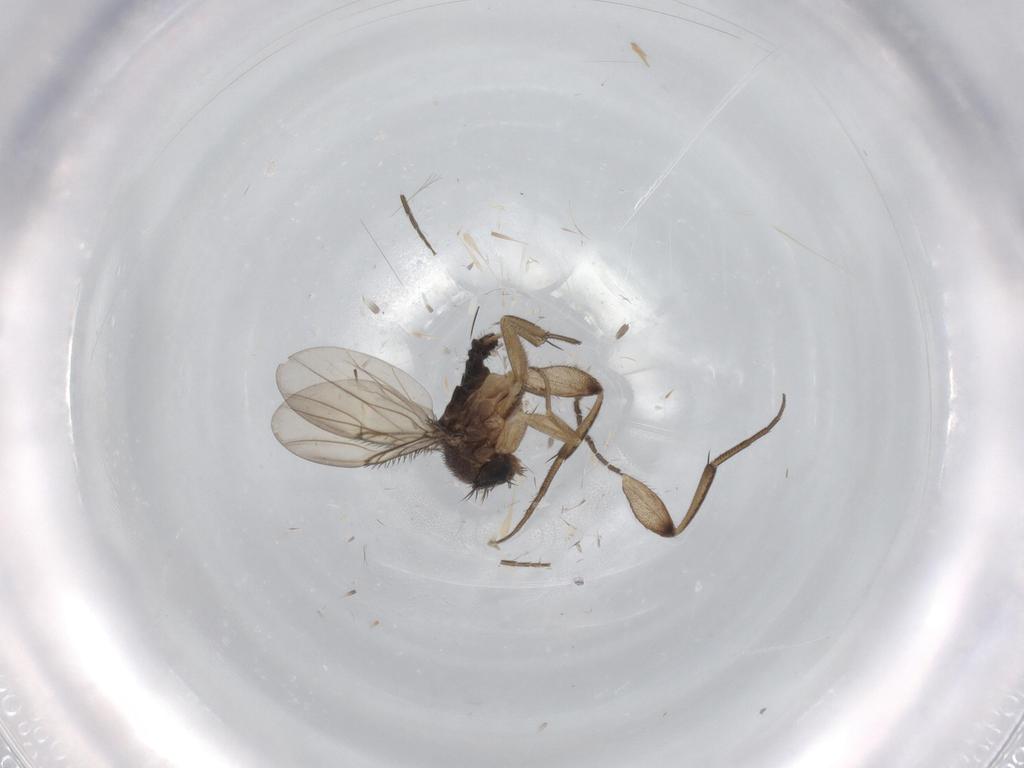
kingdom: Animalia
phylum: Arthropoda
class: Insecta
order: Diptera
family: Phoridae
